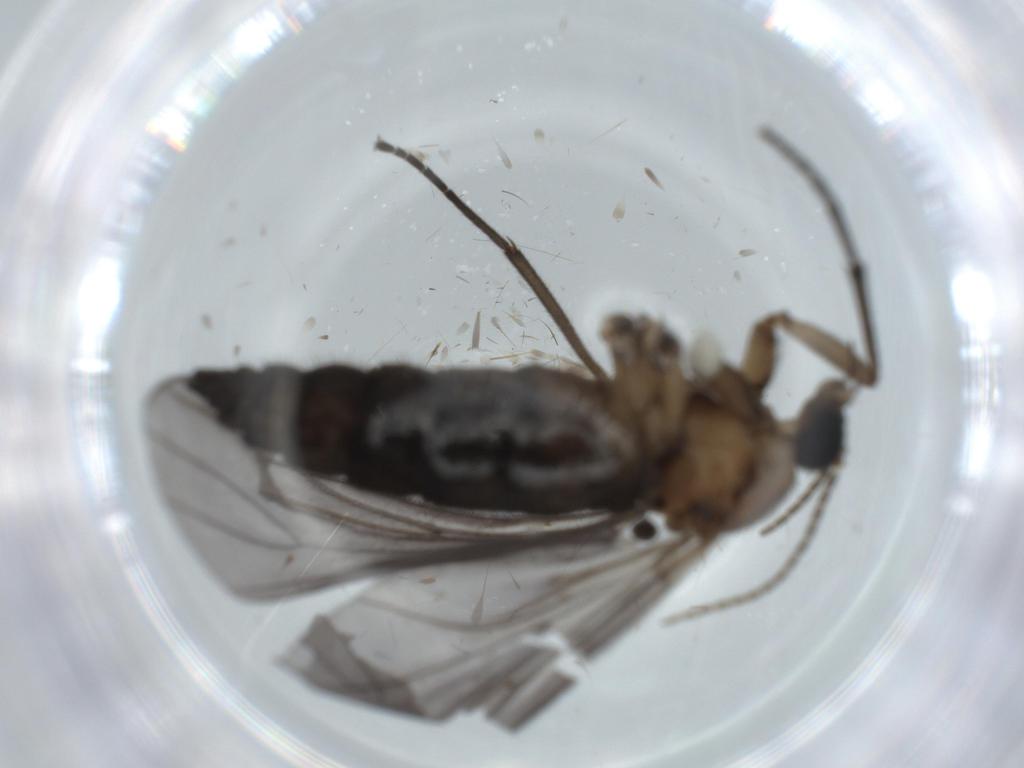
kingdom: Animalia
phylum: Arthropoda
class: Insecta
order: Diptera
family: Sciaridae
